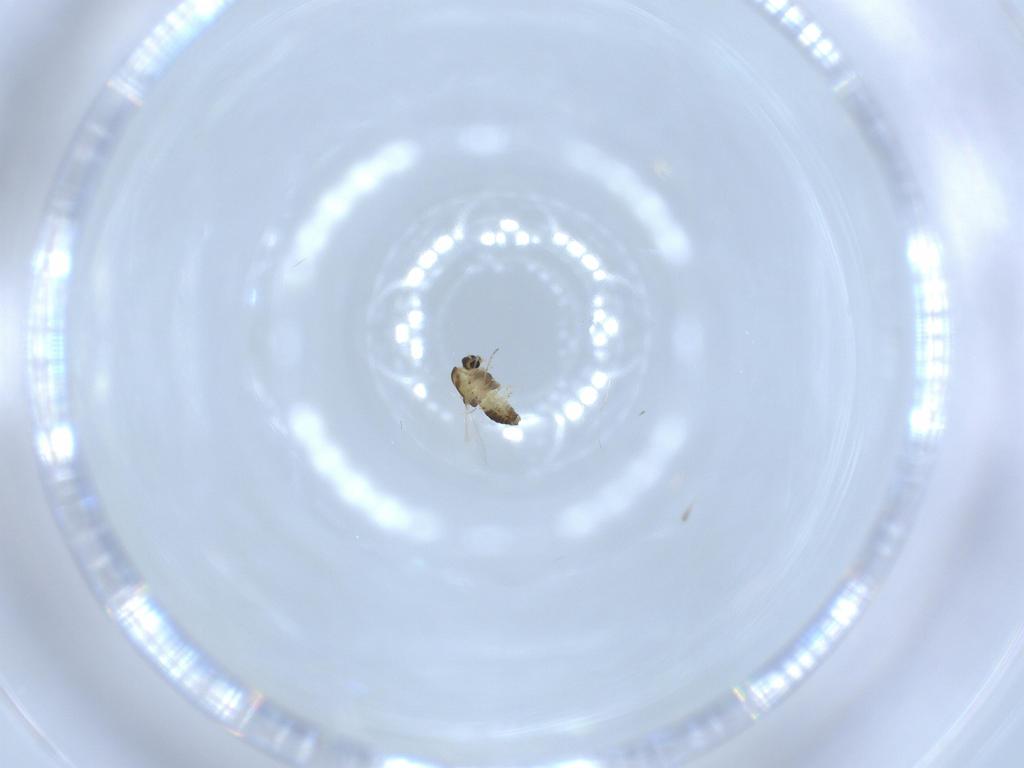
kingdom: Animalia
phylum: Arthropoda
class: Insecta
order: Diptera
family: Chironomidae
